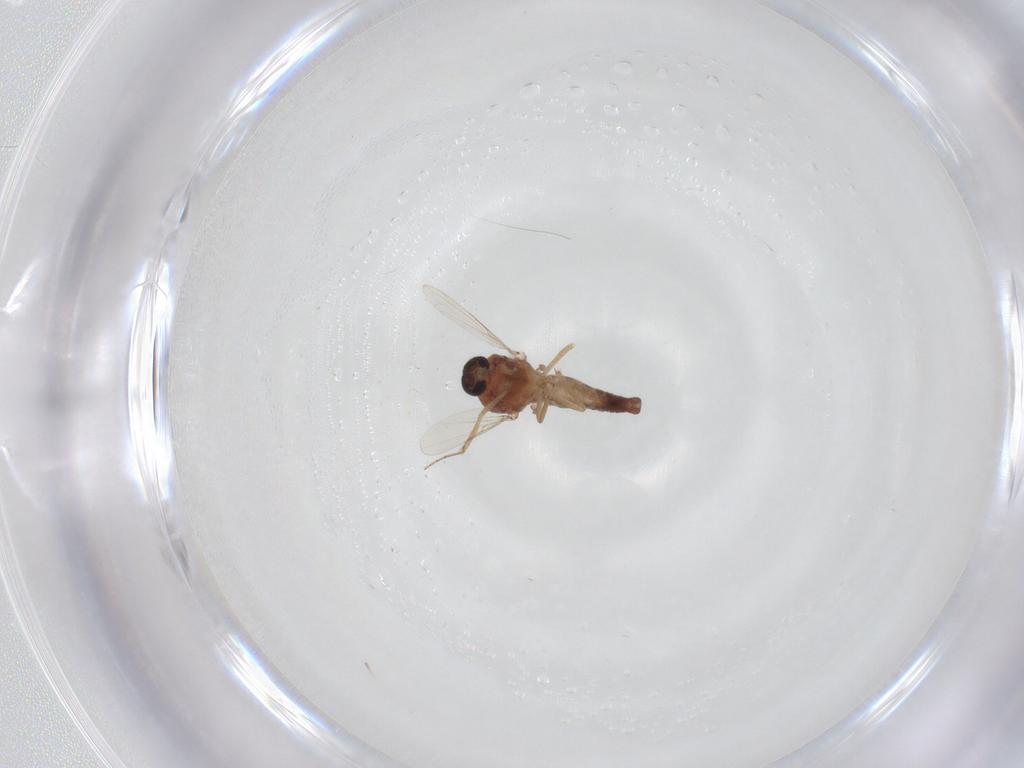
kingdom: Animalia
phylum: Arthropoda
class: Insecta
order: Diptera
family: Ceratopogonidae
